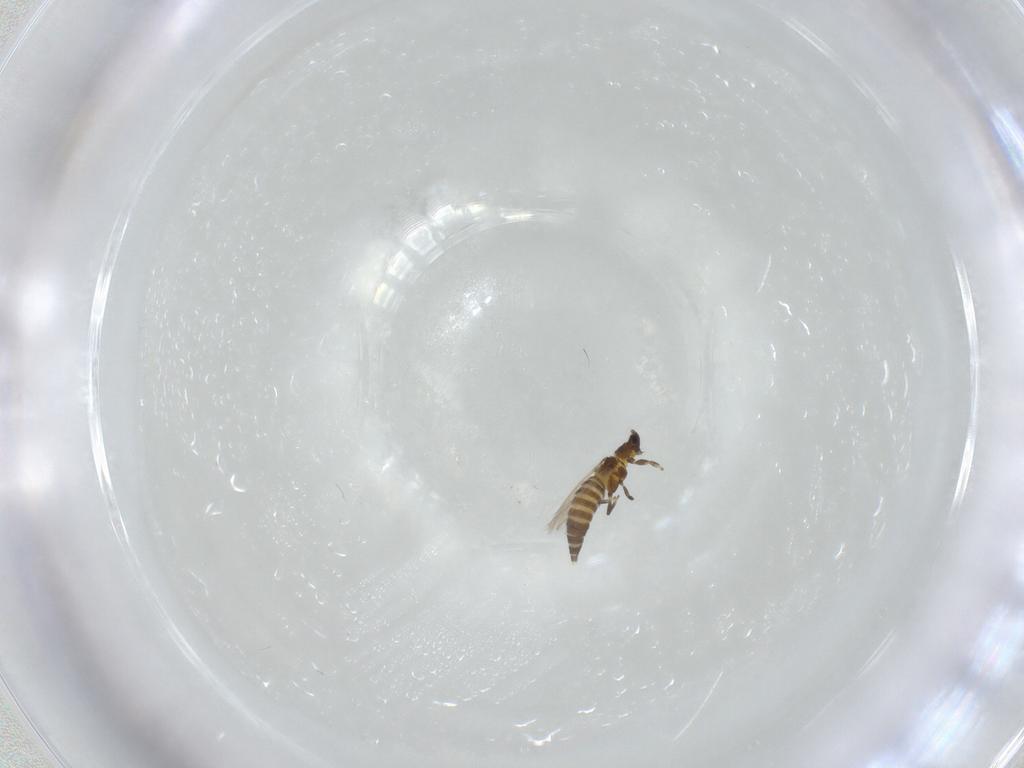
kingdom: Animalia
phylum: Arthropoda
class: Insecta
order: Thysanoptera
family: Heterothripidae
